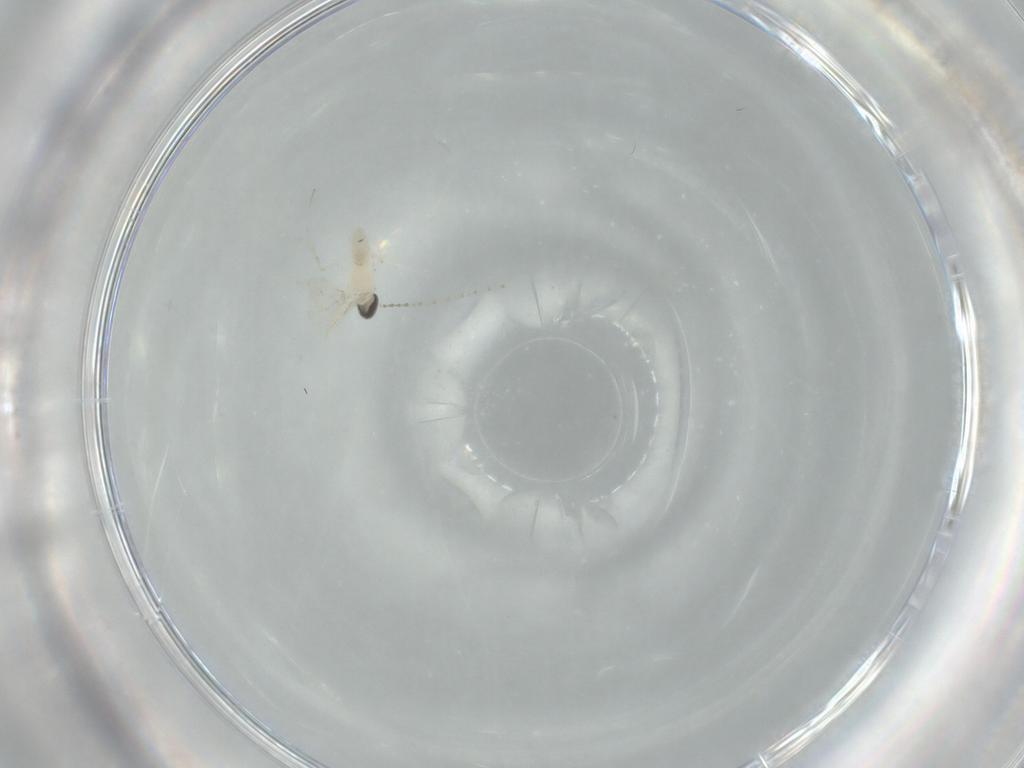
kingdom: Animalia
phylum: Arthropoda
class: Insecta
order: Diptera
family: Cecidomyiidae
